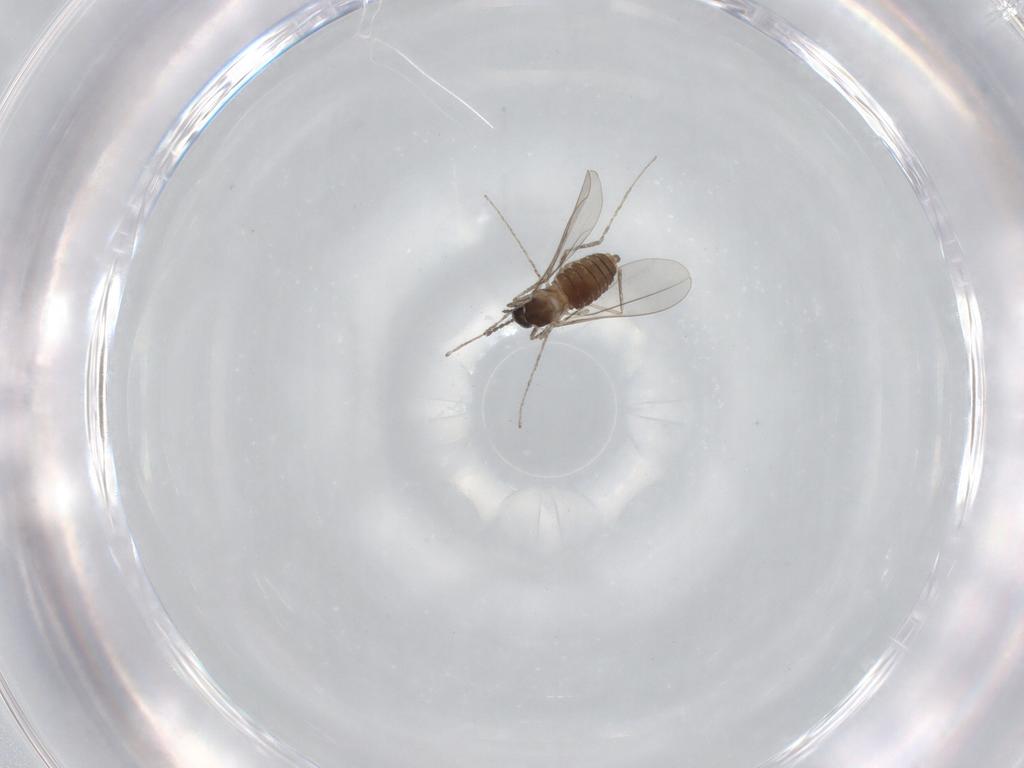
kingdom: Animalia
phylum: Arthropoda
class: Insecta
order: Diptera
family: Cecidomyiidae
